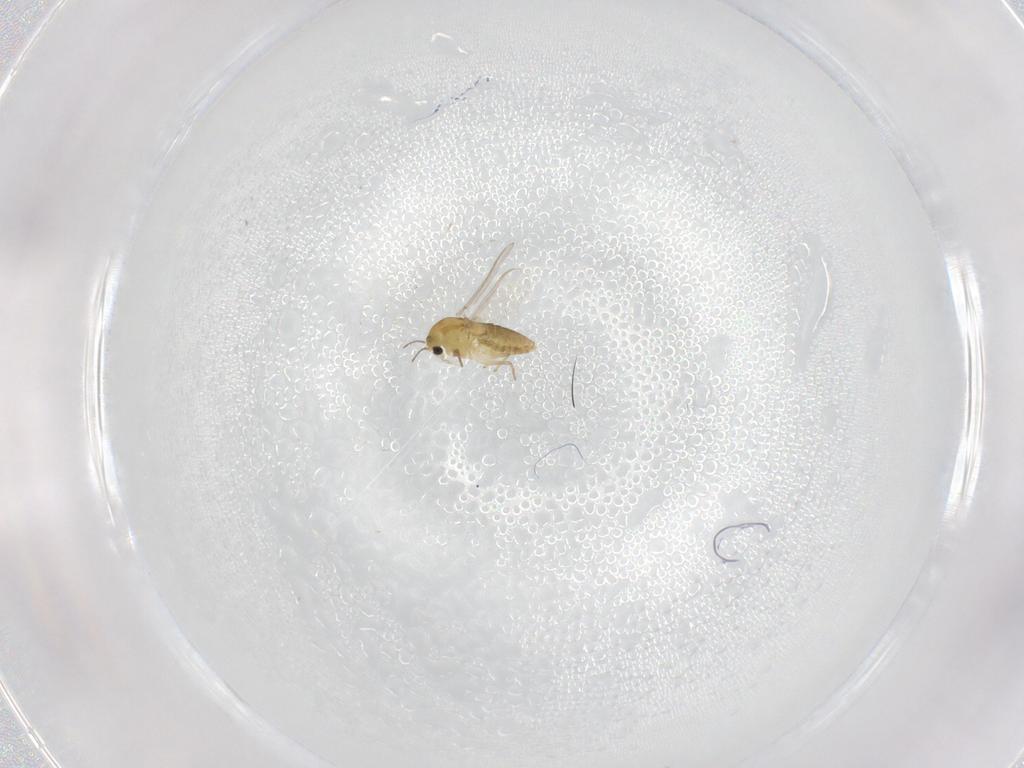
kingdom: Animalia
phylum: Arthropoda
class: Insecta
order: Diptera
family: Chironomidae
